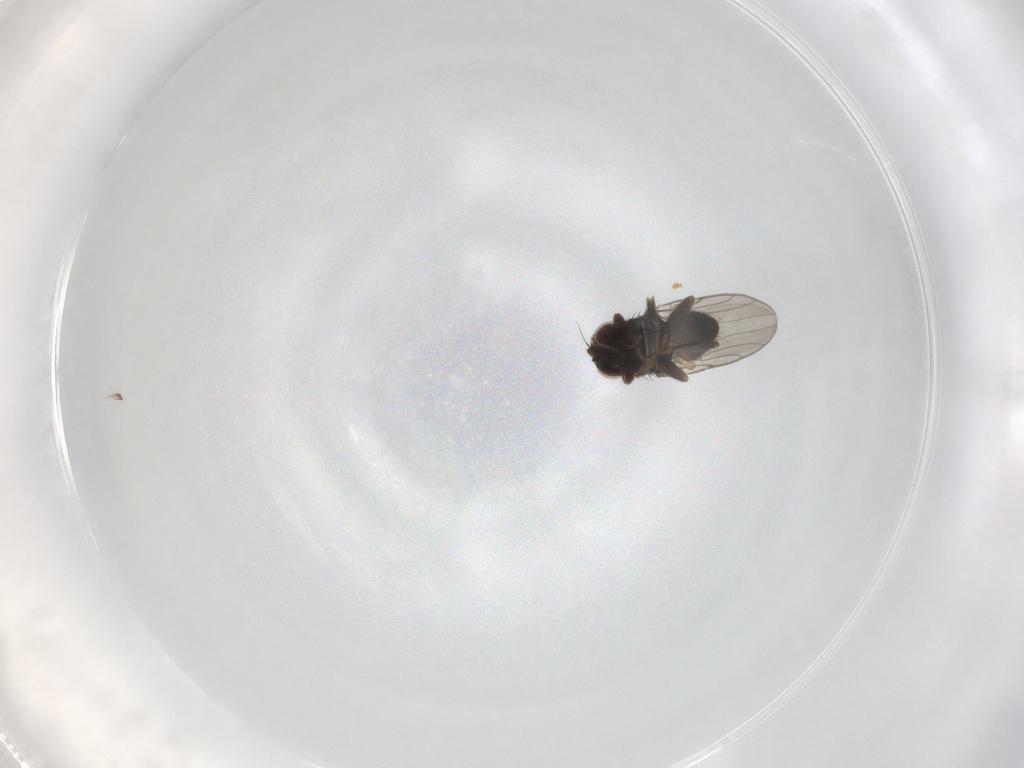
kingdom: Animalia
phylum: Arthropoda
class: Insecta
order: Diptera
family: Chloropidae
